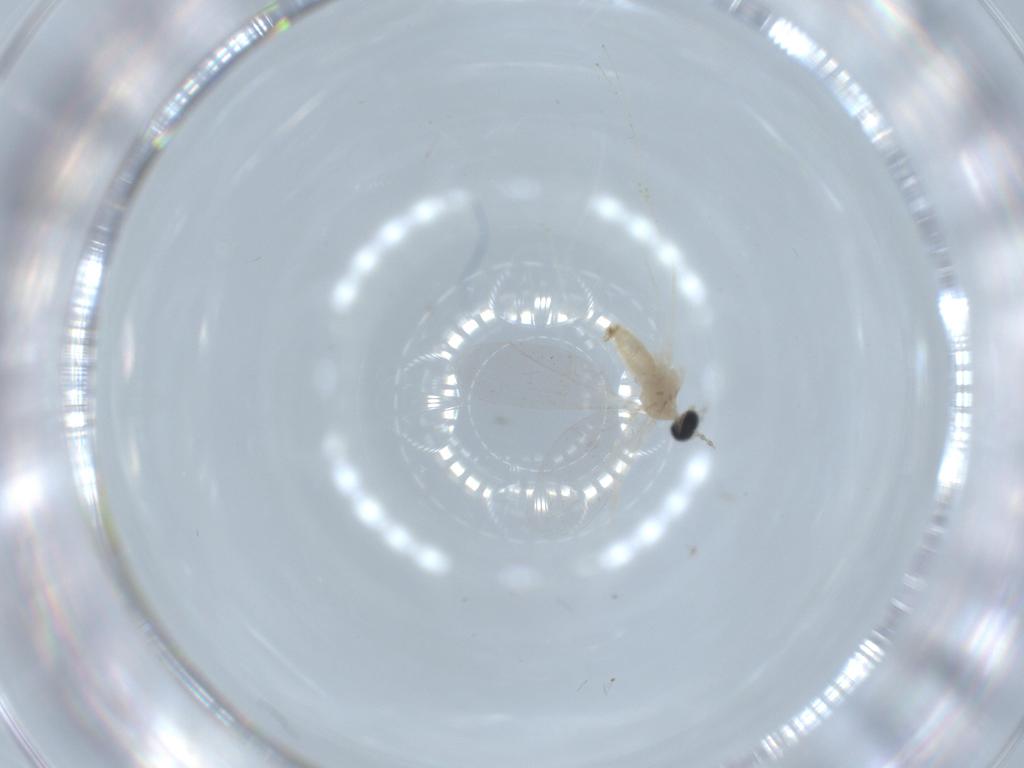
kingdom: Animalia
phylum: Arthropoda
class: Insecta
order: Diptera
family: Cecidomyiidae
